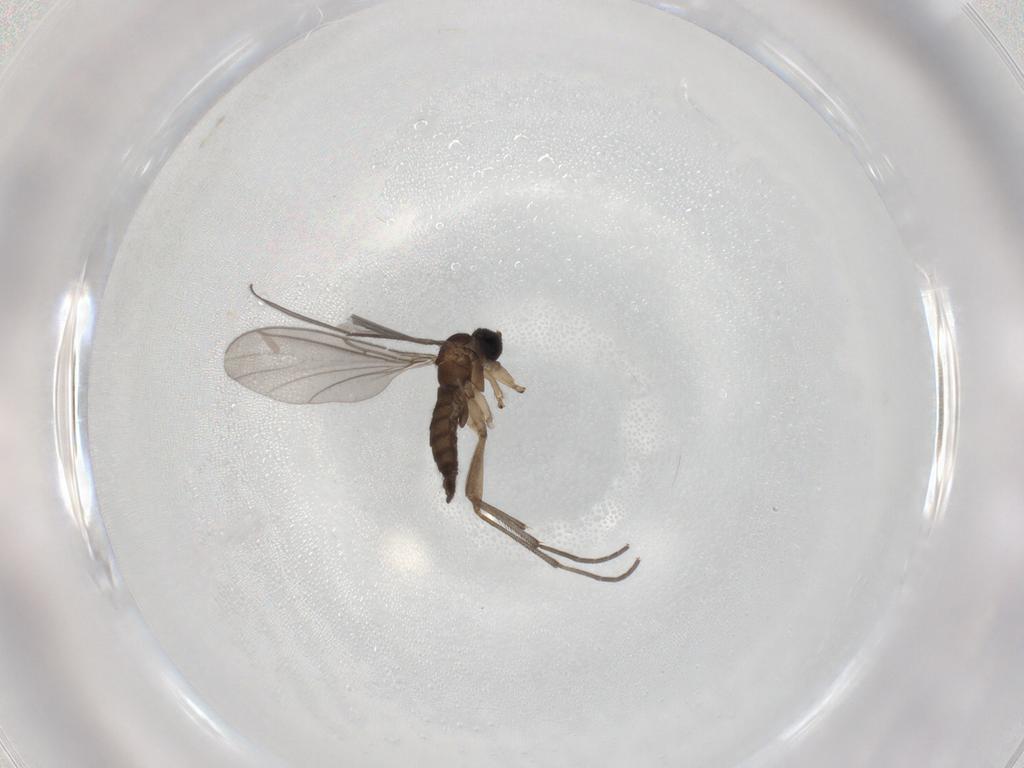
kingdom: Animalia
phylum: Arthropoda
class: Insecta
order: Diptera
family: Sciaridae
